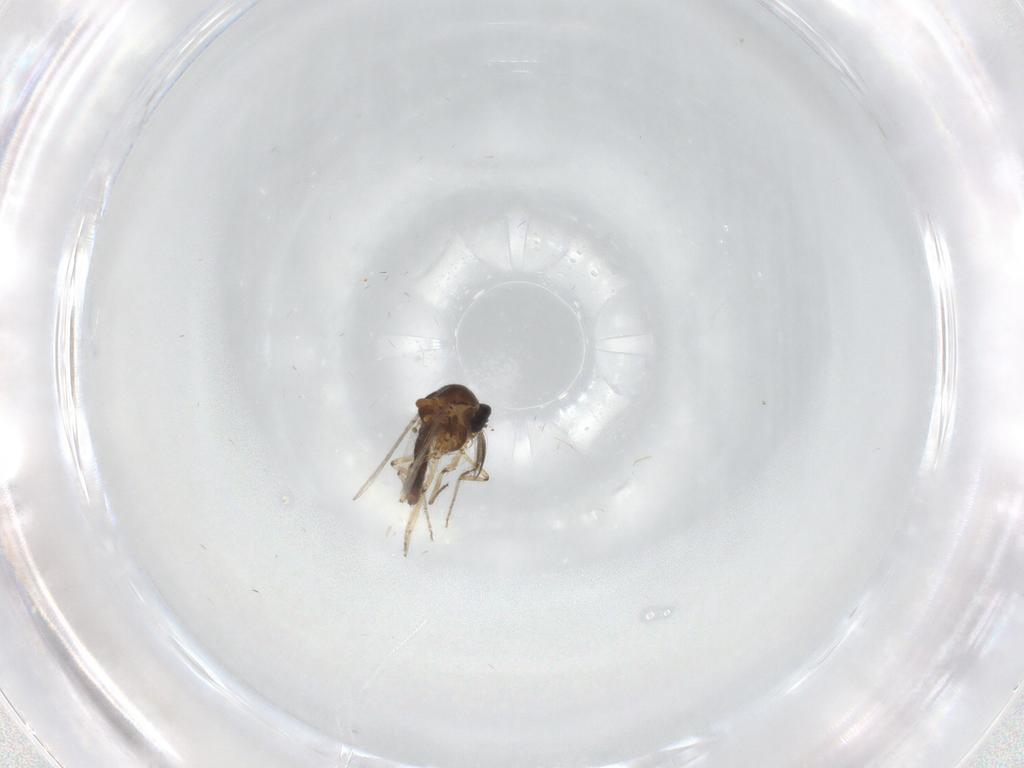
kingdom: Animalia
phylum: Arthropoda
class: Insecta
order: Diptera
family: Ceratopogonidae
